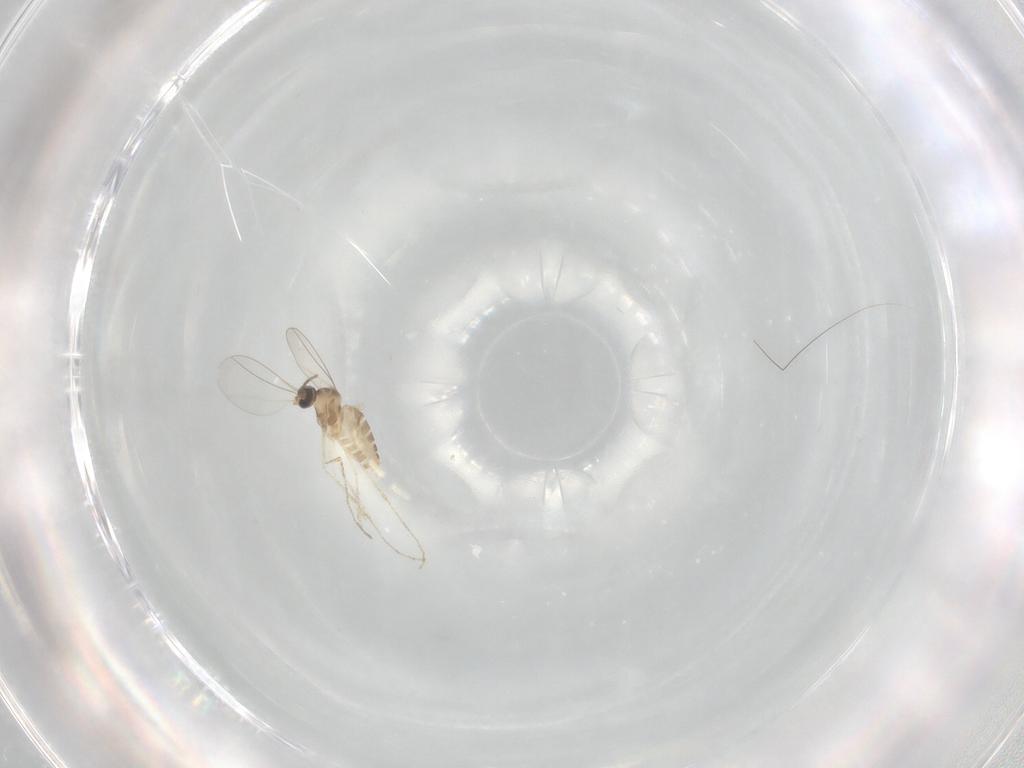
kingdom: Animalia
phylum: Arthropoda
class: Insecta
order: Diptera
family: Cecidomyiidae
